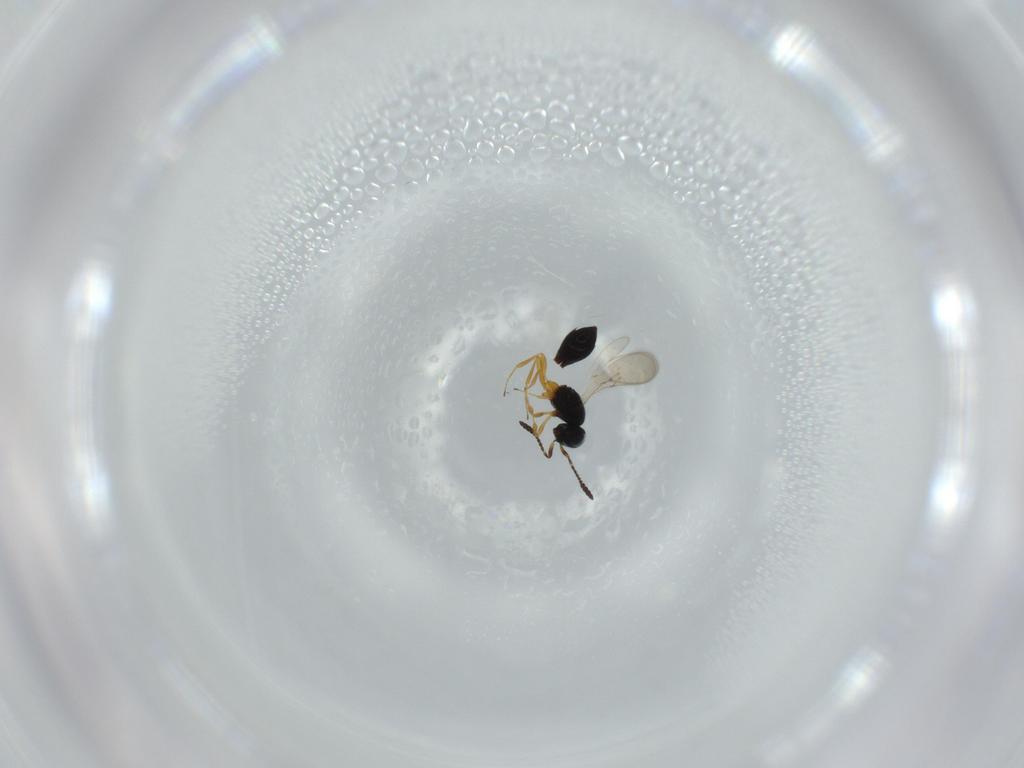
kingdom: Animalia
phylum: Arthropoda
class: Insecta
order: Hymenoptera
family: Scelionidae
